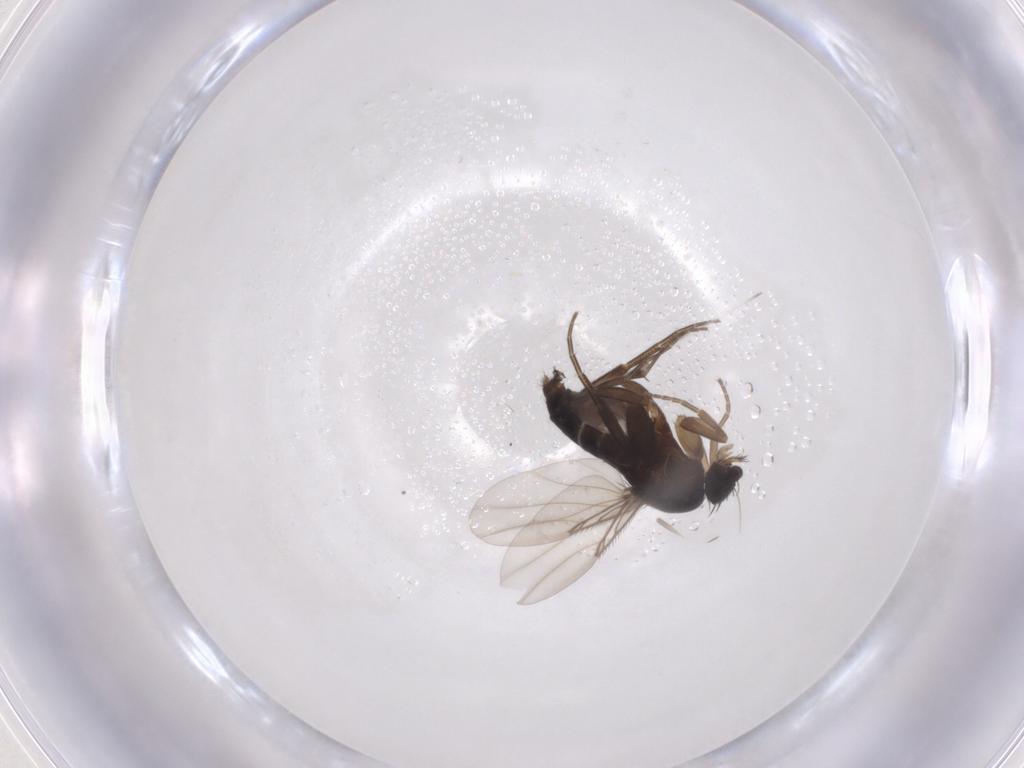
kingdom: Animalia
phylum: Arthropoda
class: Insecta
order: Diptera
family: Phoridae
